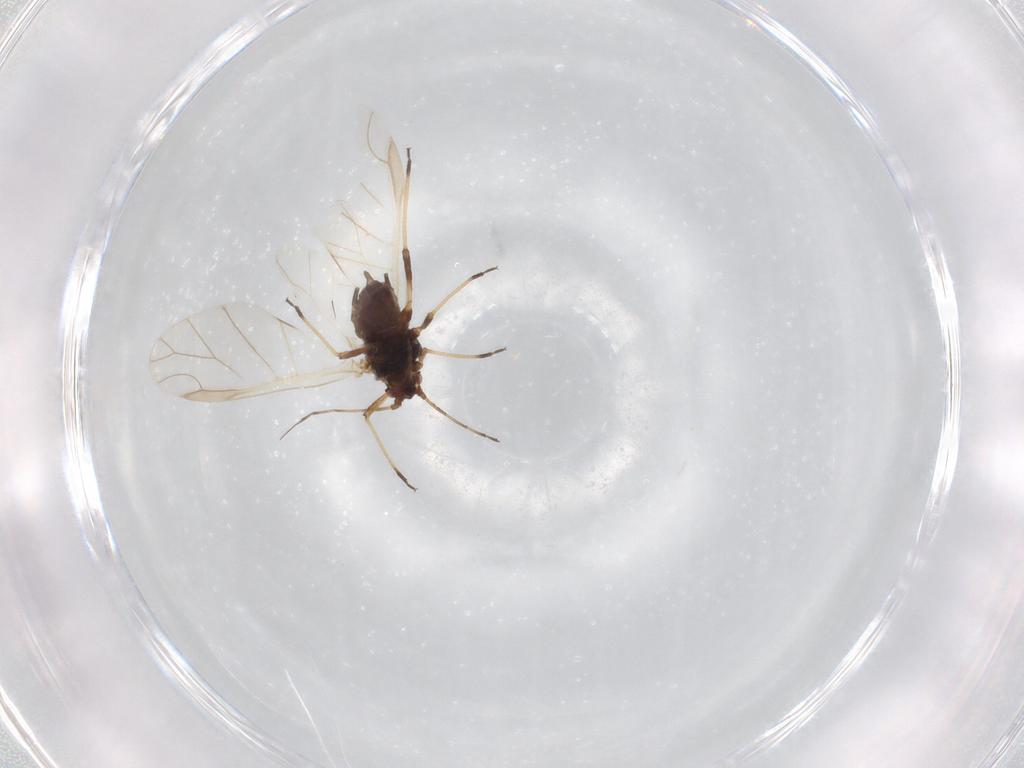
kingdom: Animalia
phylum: Arthropoda
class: Insecta
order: Hemiptera
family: Aphididae
